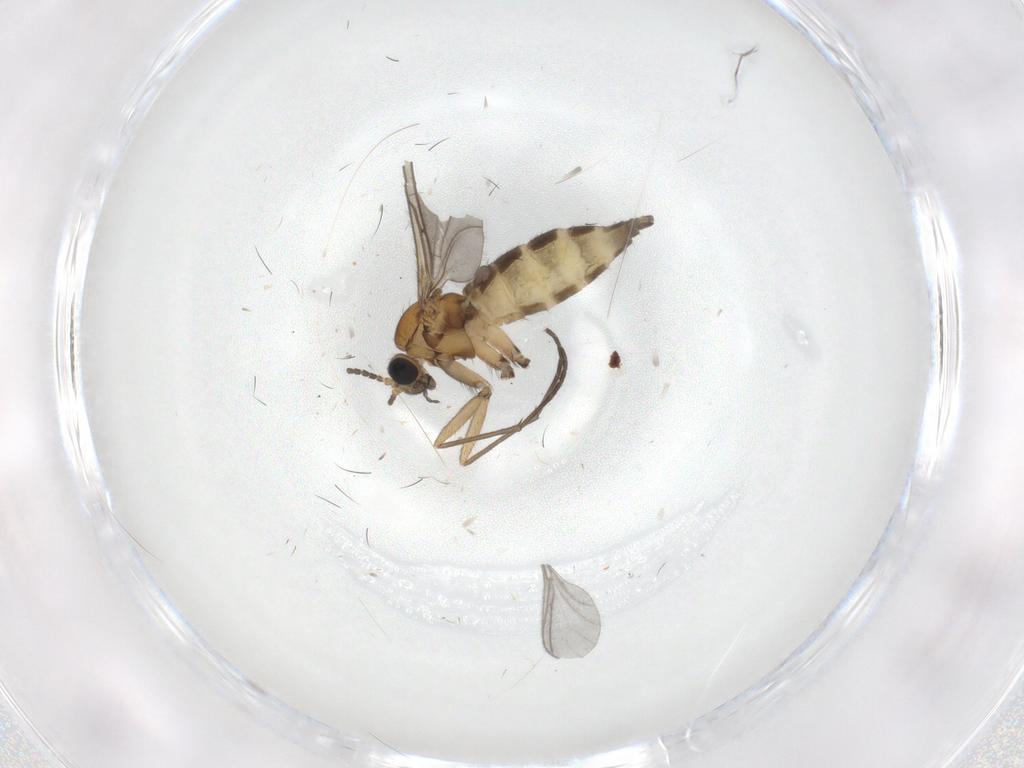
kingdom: Animalia
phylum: Arthropoda
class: Insecta
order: Diptera
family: Sciaridae
